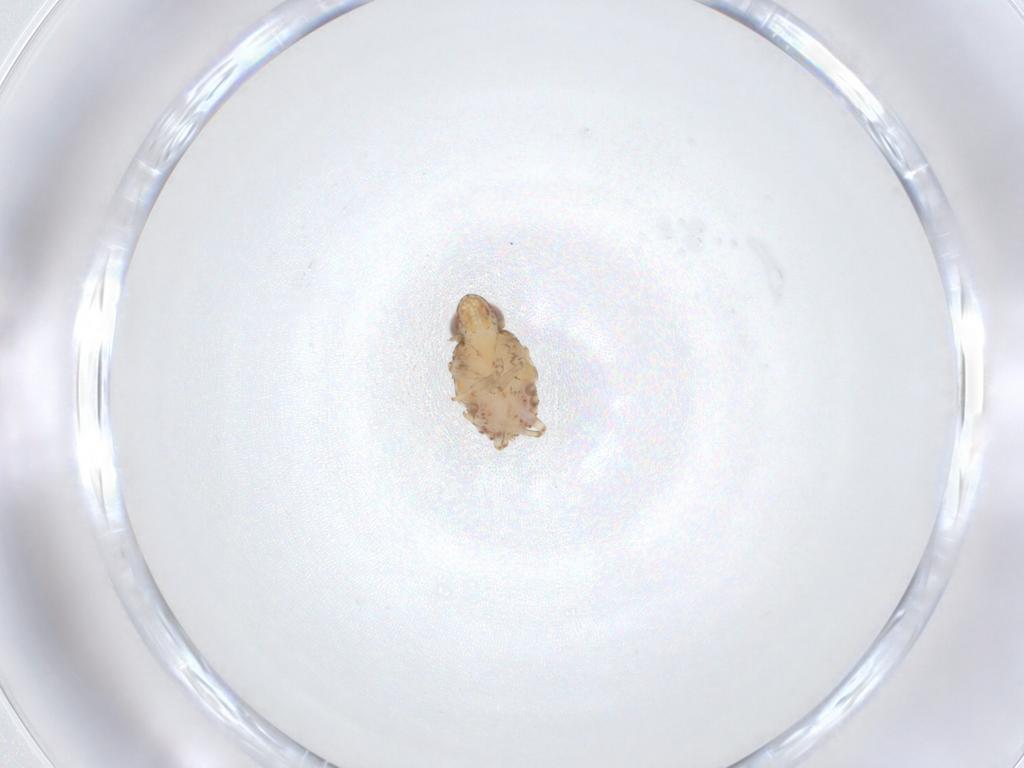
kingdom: Animalia
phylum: Arthropoda
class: Insecta
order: Hemiptera
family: Issidae
